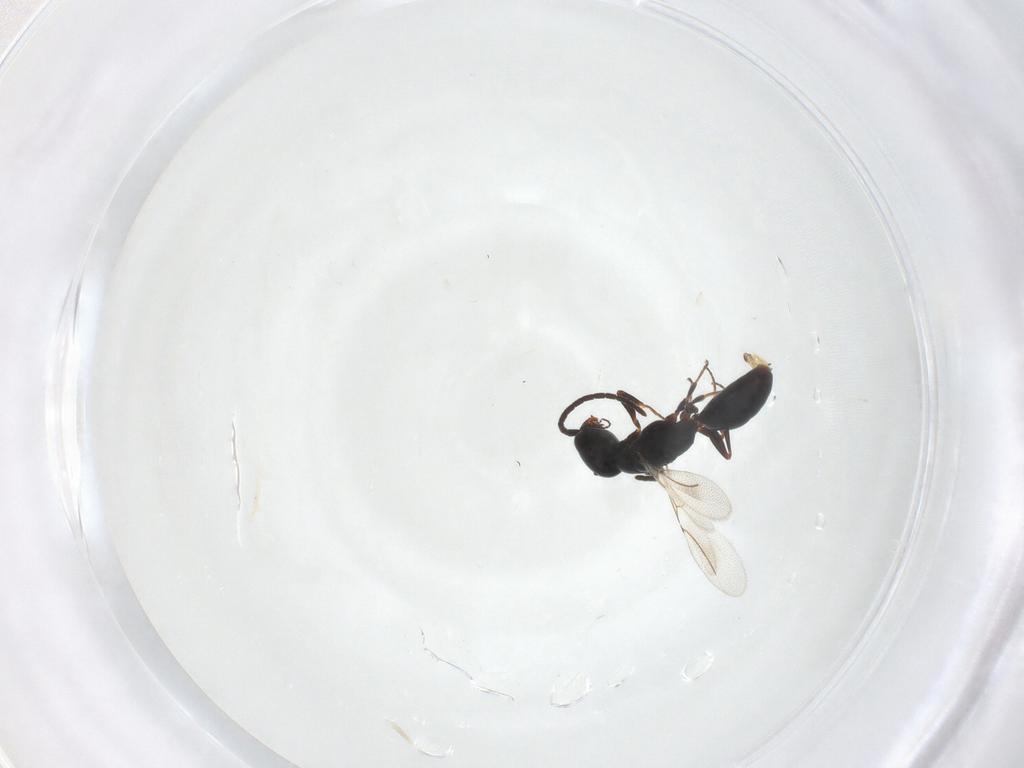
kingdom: Animalia
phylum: Arthropoda
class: Insecta
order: Hymenoptera
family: Bethylidae
